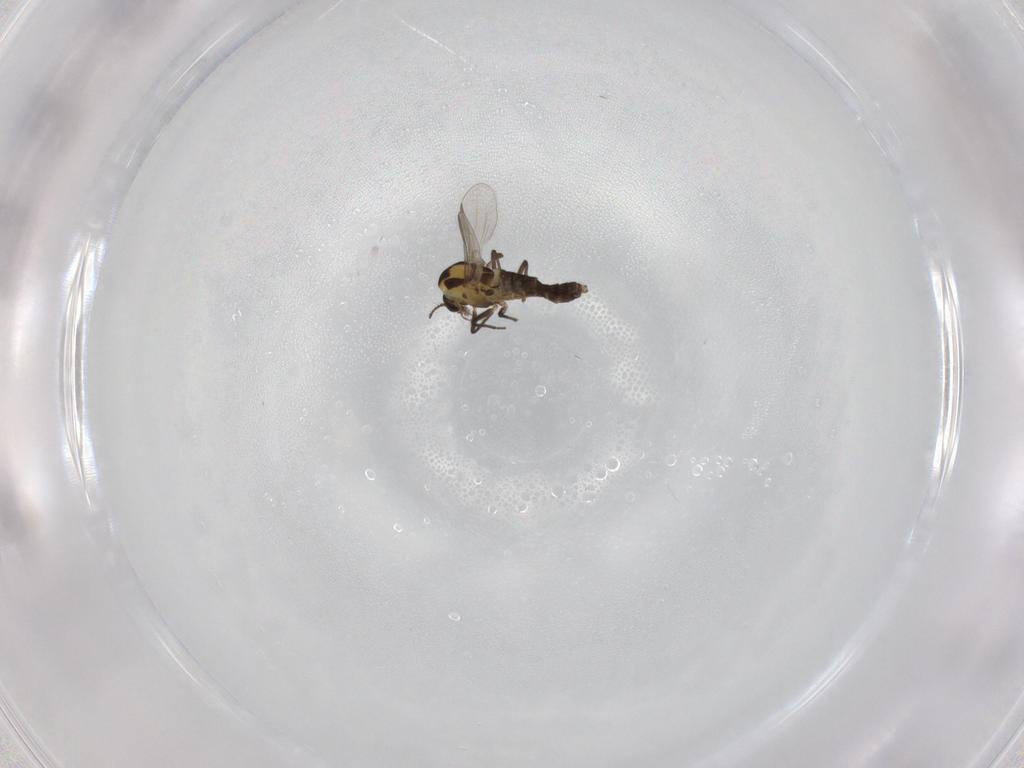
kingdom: Animalia
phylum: Arthropoda
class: Insecta
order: Diptera
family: Chironomidae
